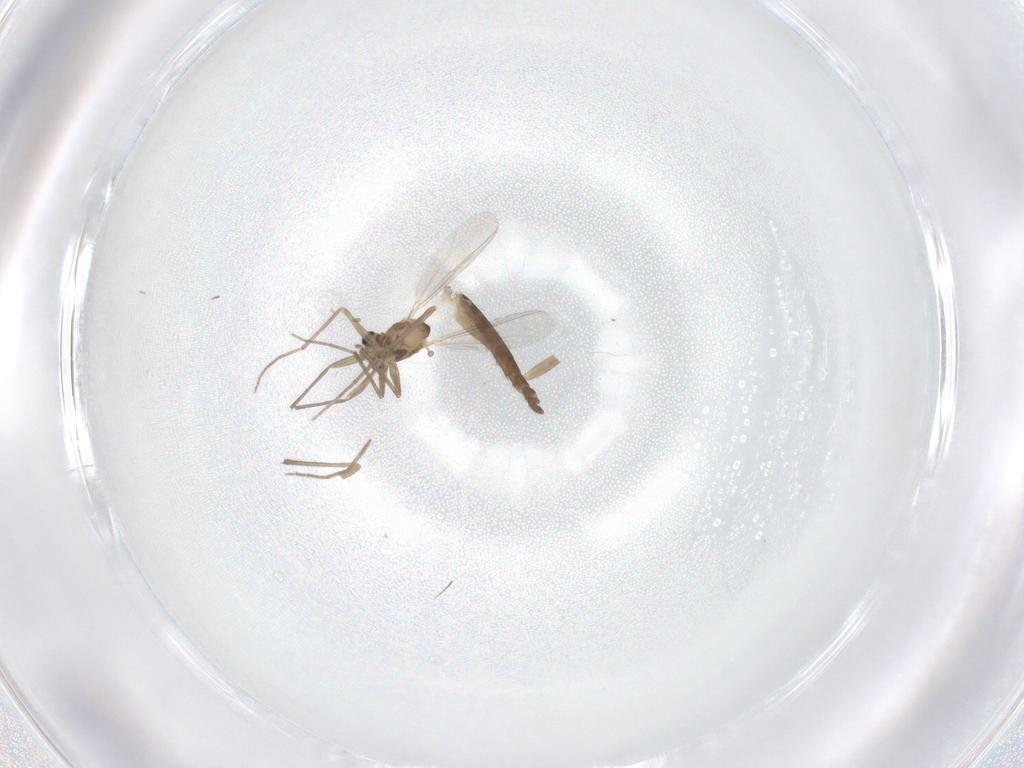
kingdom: Animalia
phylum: Arthropoda
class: Insecta
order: Diptera
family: Chironomidae
